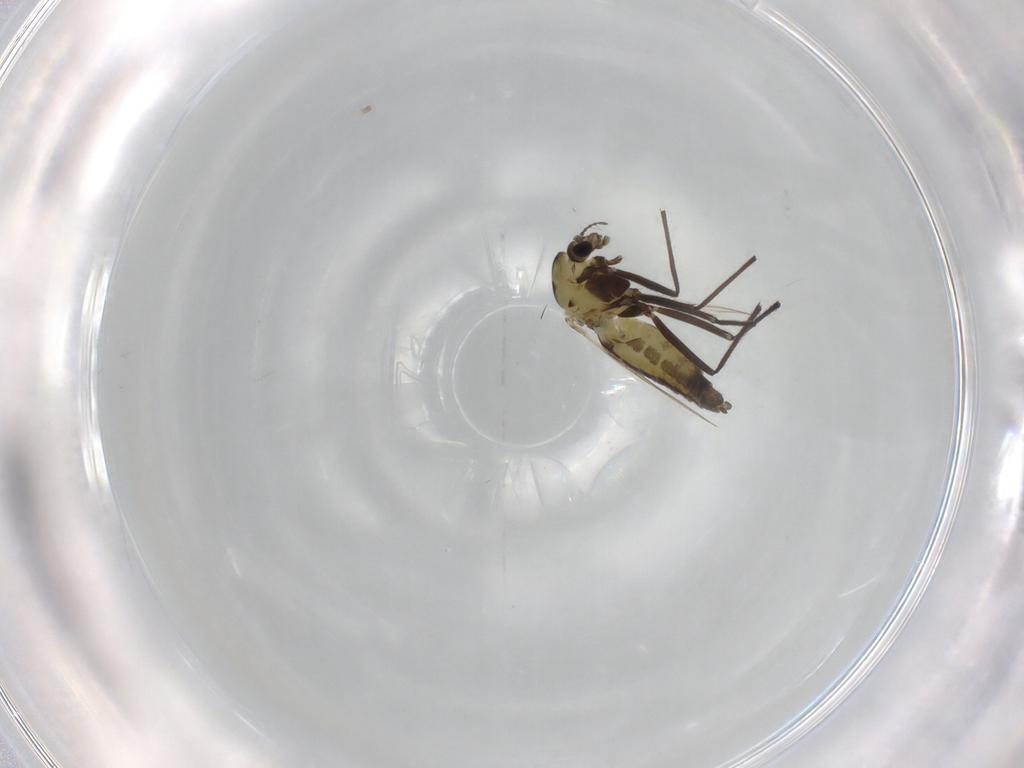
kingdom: Animalia
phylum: Arthropoda
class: Insecta
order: Diptera
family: Chironomidae
